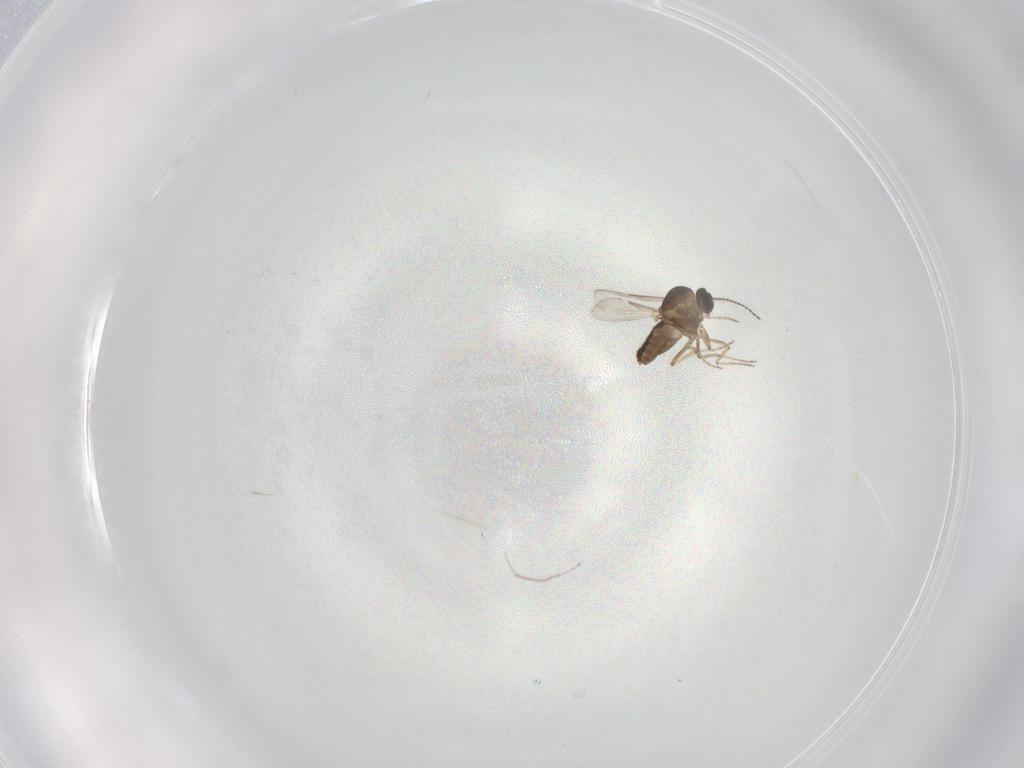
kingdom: Animalia
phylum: Arthropoda
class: Insecta
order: Diptera
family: Ceratopogonidae
